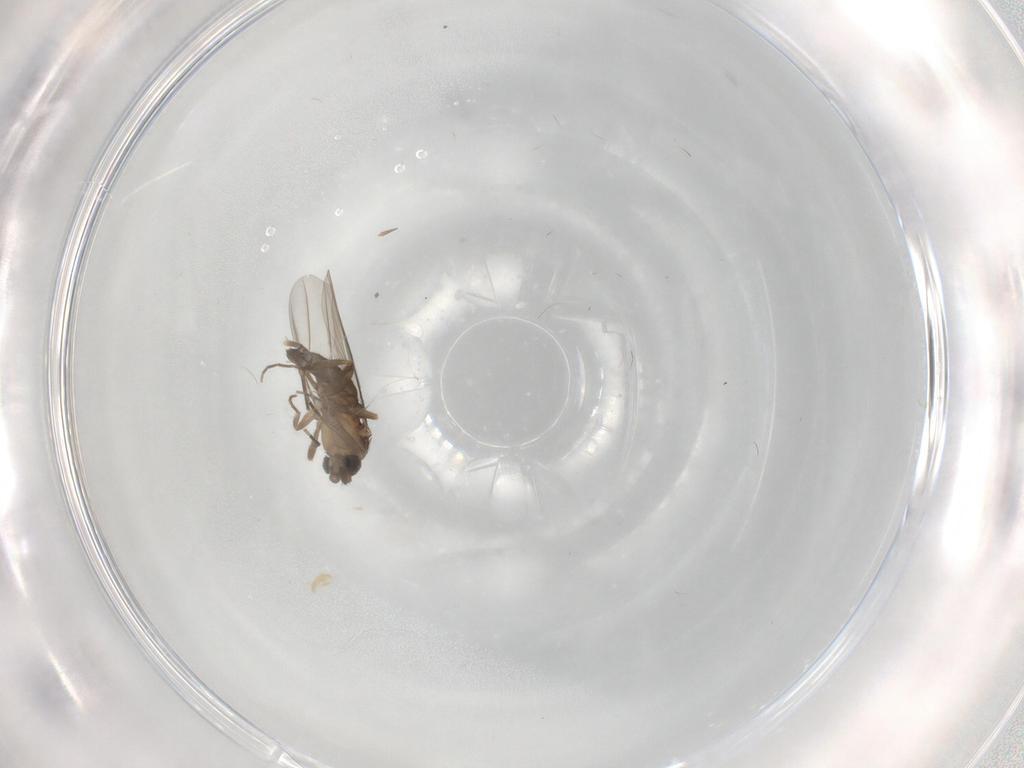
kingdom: Animalia
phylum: Arthropoda
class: Insecta
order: Diptera
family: Phoridae
